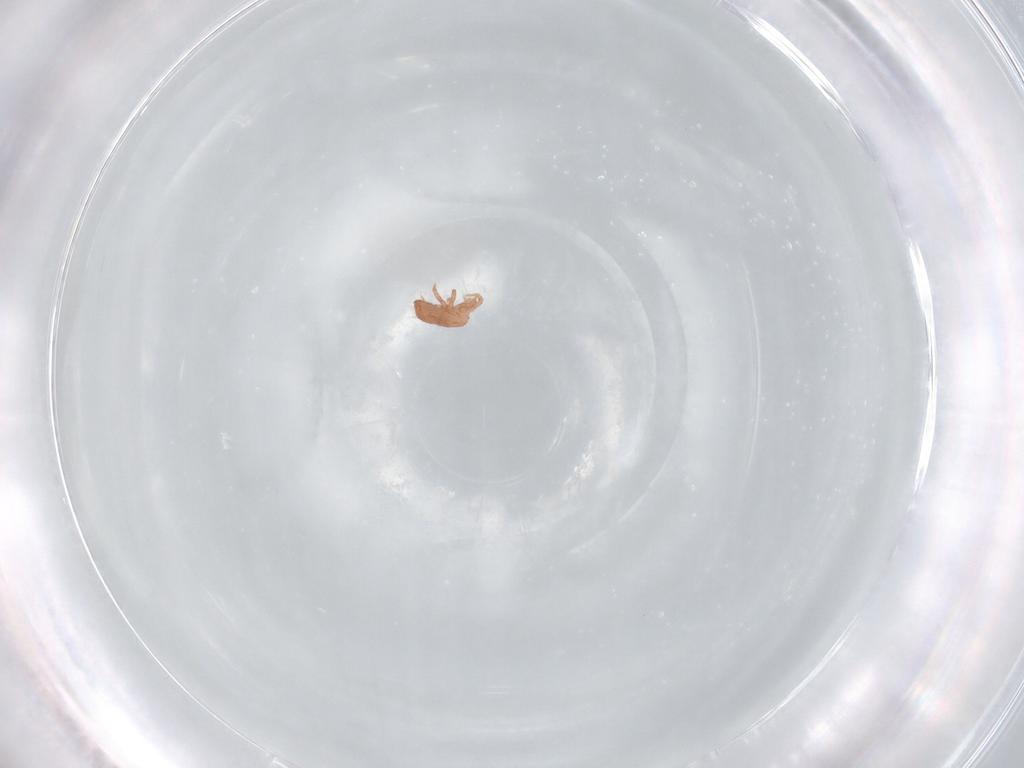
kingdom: Animalia
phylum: Arthropoda
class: Arachnida
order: Mesostigmata
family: Zerconidae
